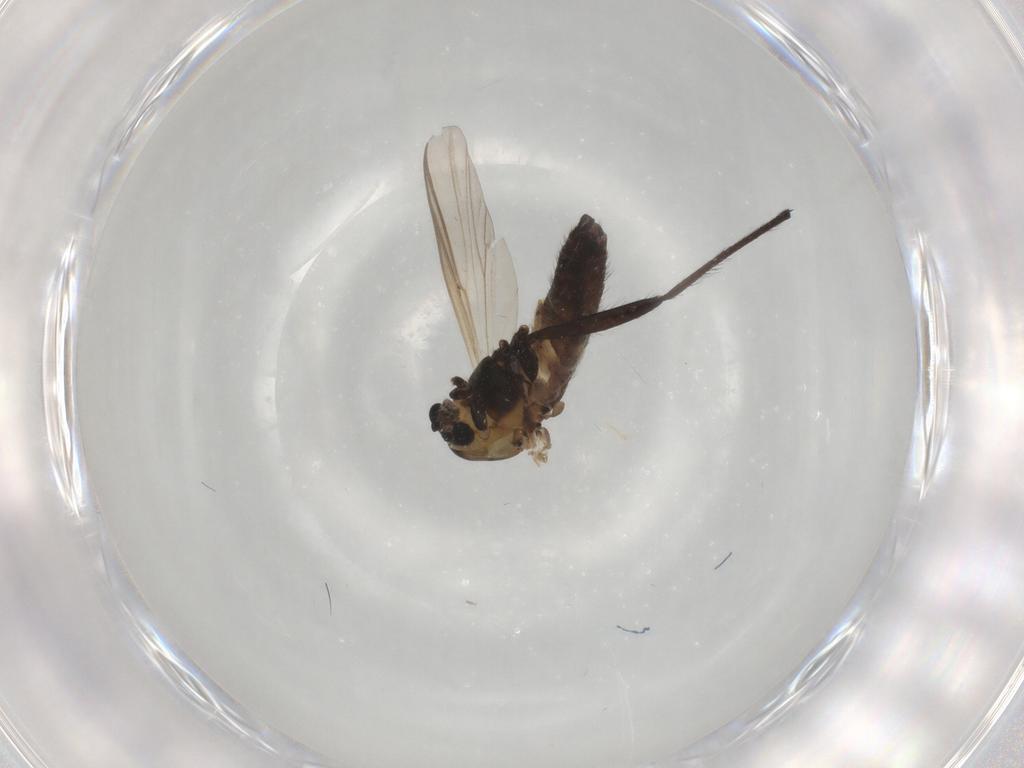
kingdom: Animalia
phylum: Arthropoda
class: Insecta
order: Diptera
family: Chironomidae
